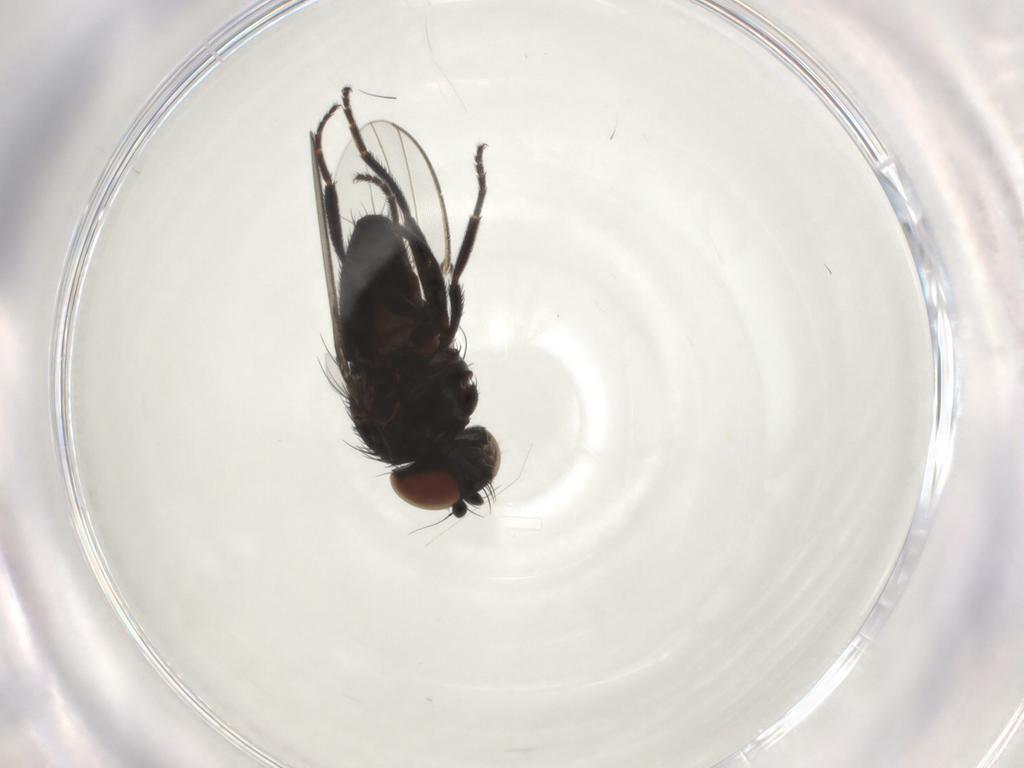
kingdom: Animalia
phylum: Arthropoda
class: Insecta
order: Diptera
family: Milichiidae
